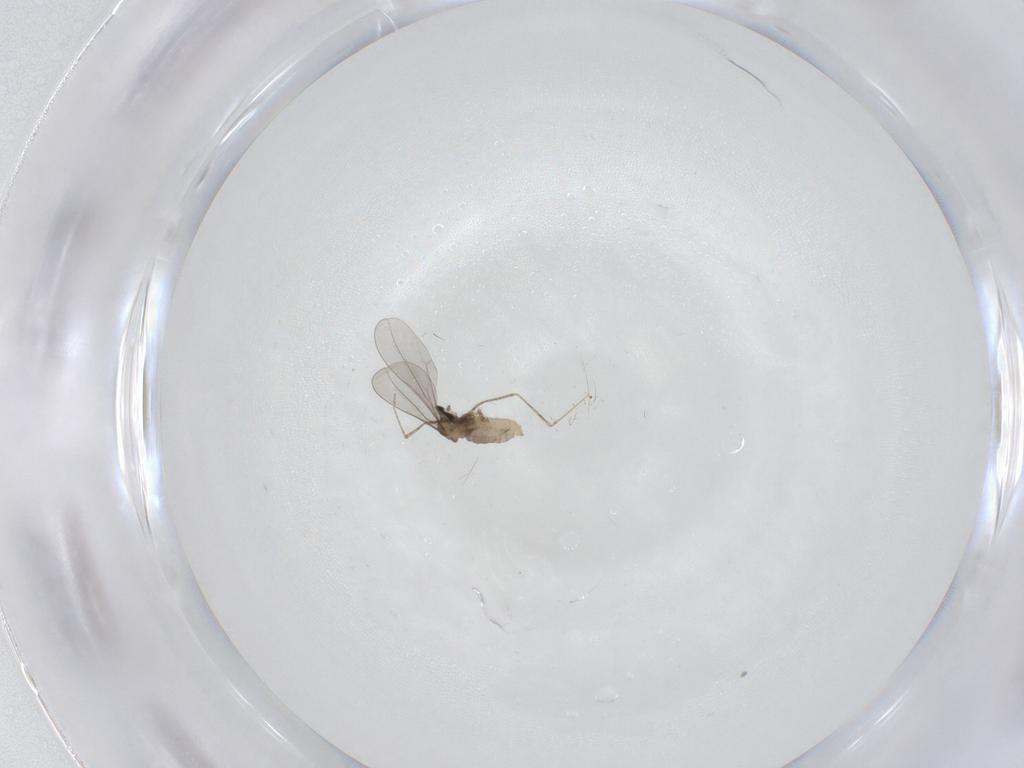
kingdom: Animalia
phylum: Arthropoda
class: Insecta
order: Diptera
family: Cecidomyiidae
